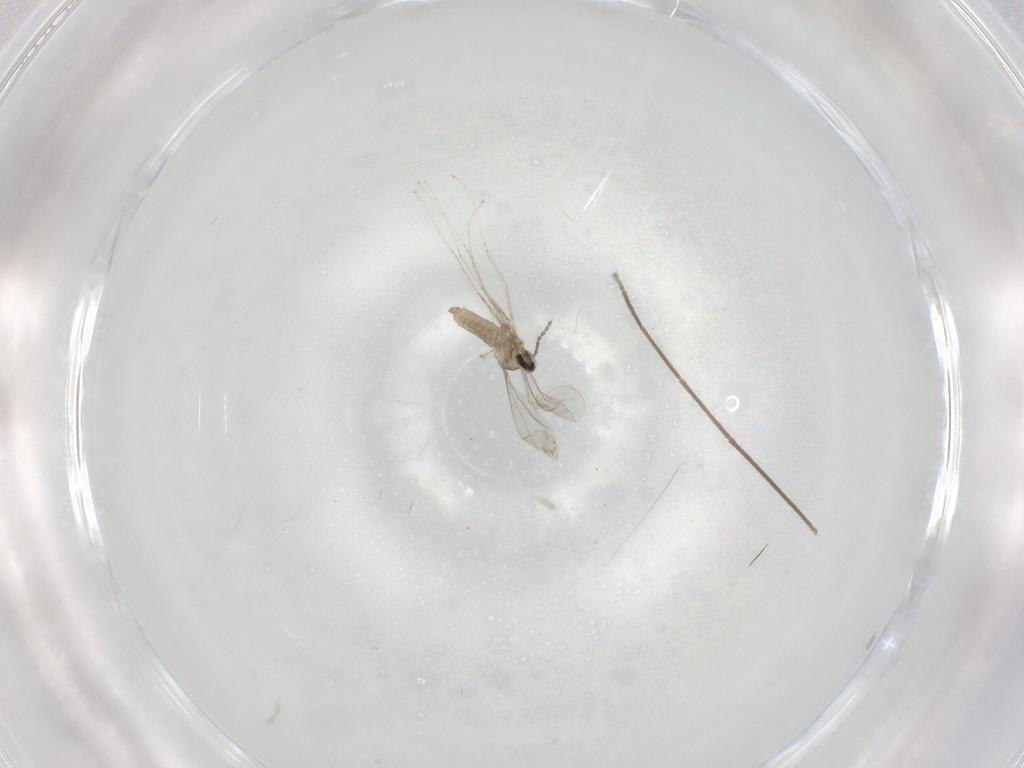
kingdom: Animalia
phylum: Arthropoda
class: Insecta
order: Diptera
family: Cecidomyiidae
